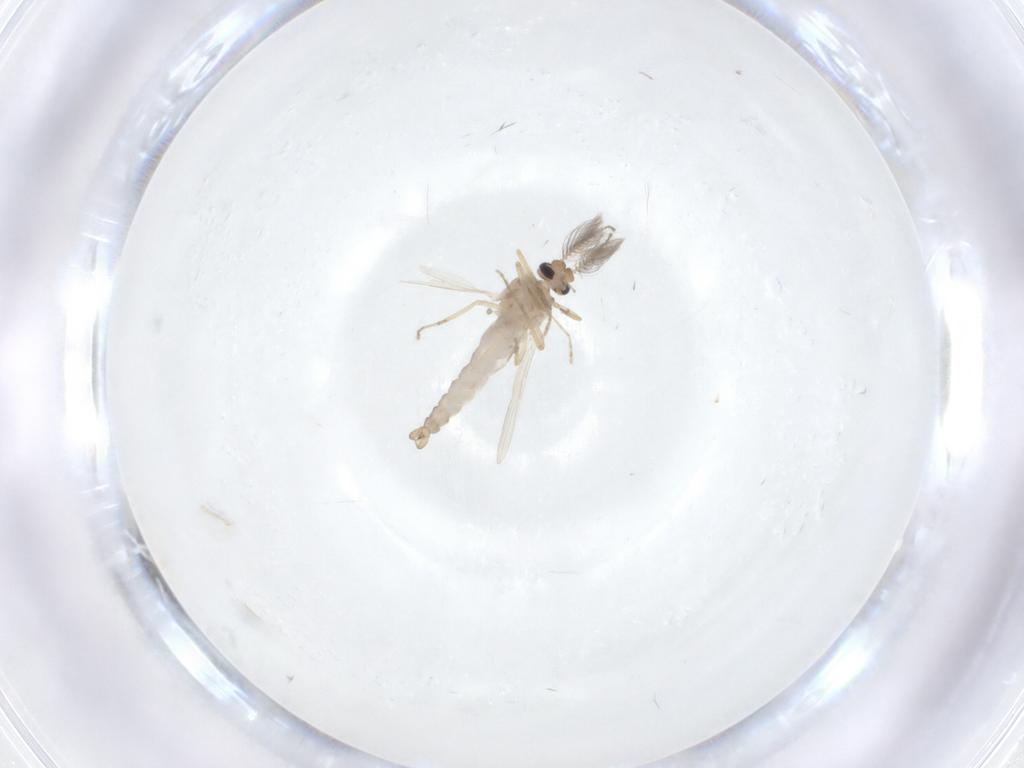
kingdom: Animalia
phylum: Arthropoda
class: Insecta
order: Diptera
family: Ceratopogonidae
